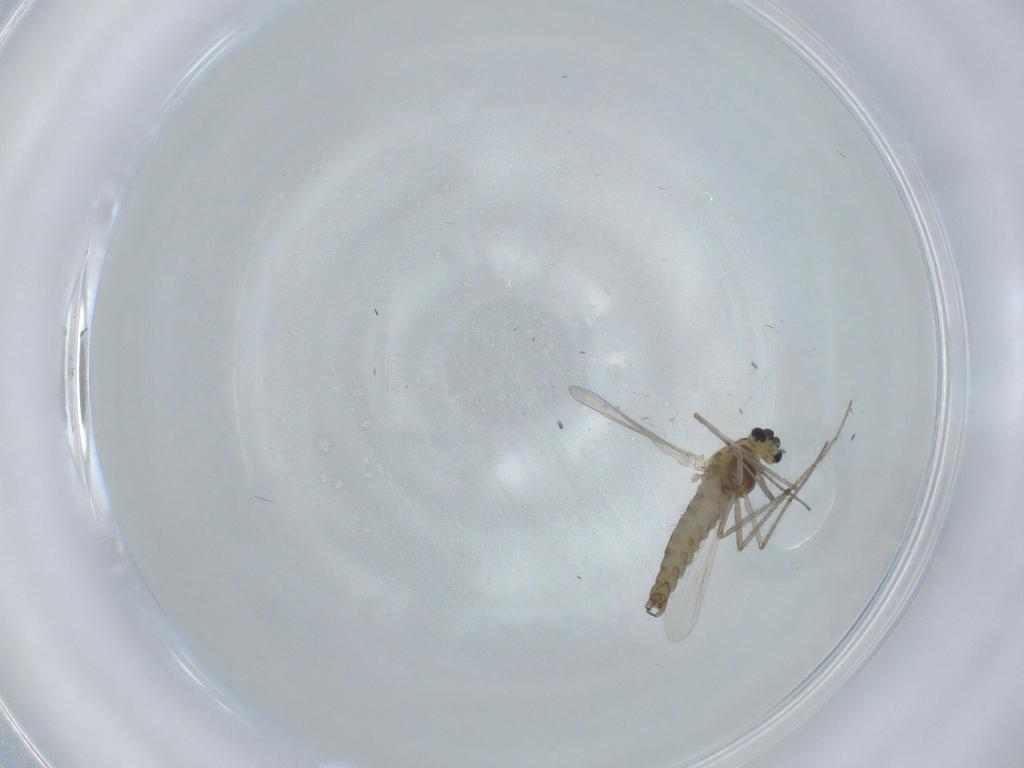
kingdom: Animalia
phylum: Arthropoda
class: Insecta
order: Diptera
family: Chironomidae
